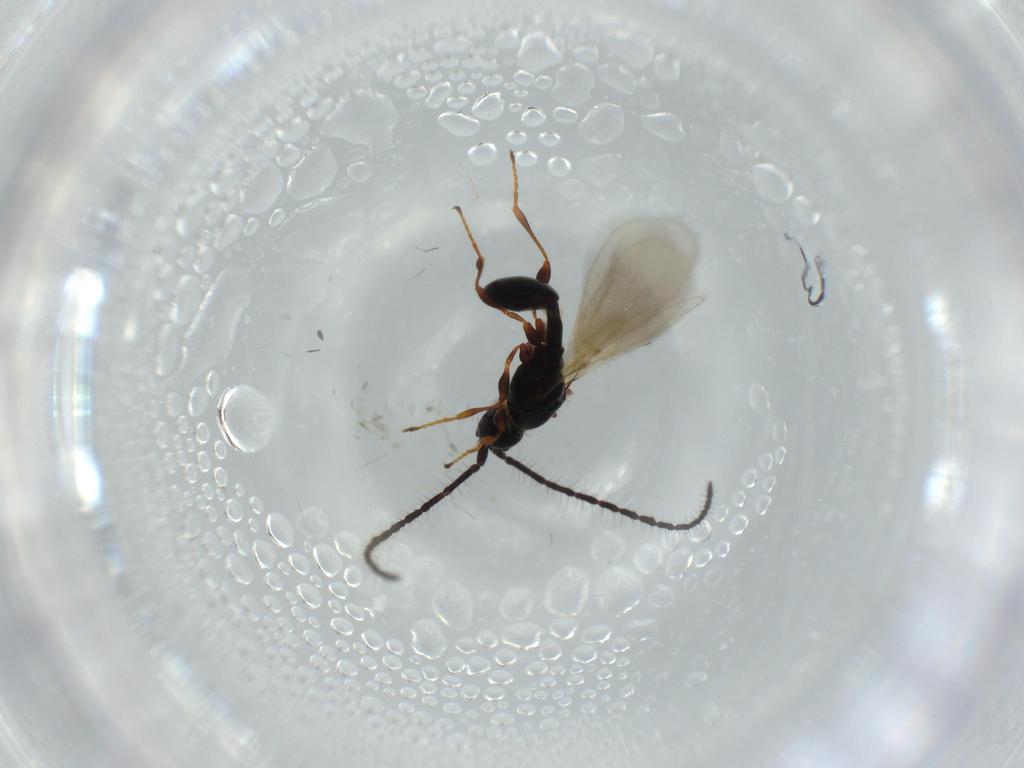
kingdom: Animalia
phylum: Arthropoda
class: Insecta
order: Hymenoptera
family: Diapriidae
